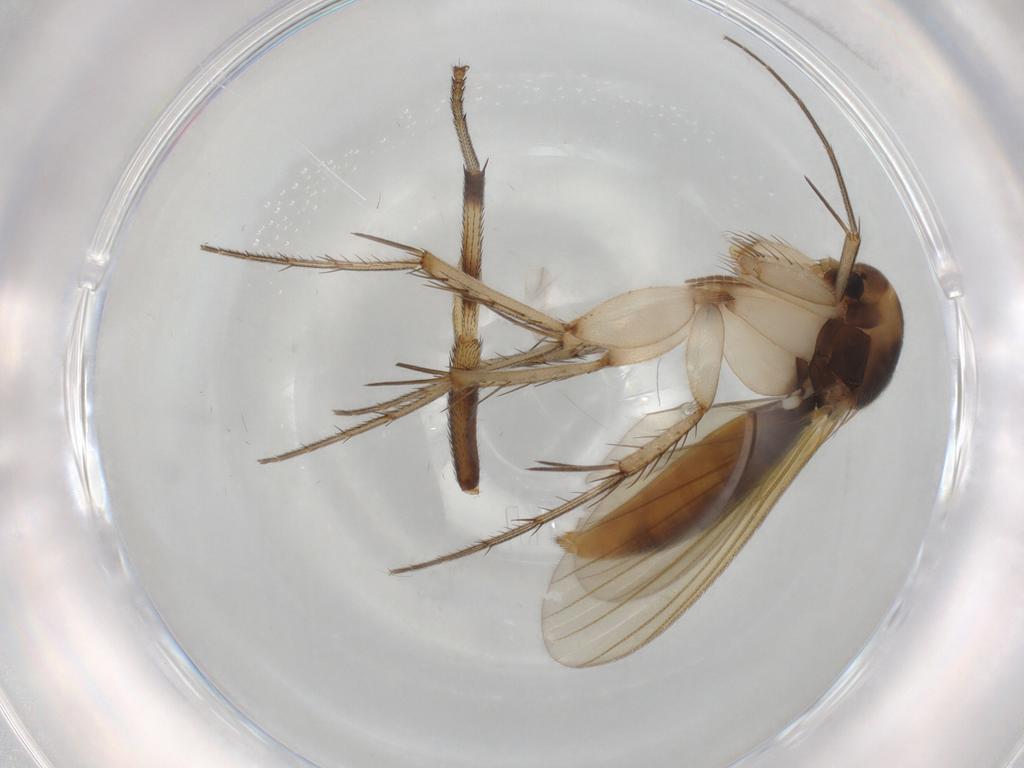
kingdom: Animalia
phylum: Arthropoda
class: Insecta
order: Diptera
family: Mycetophilidae
